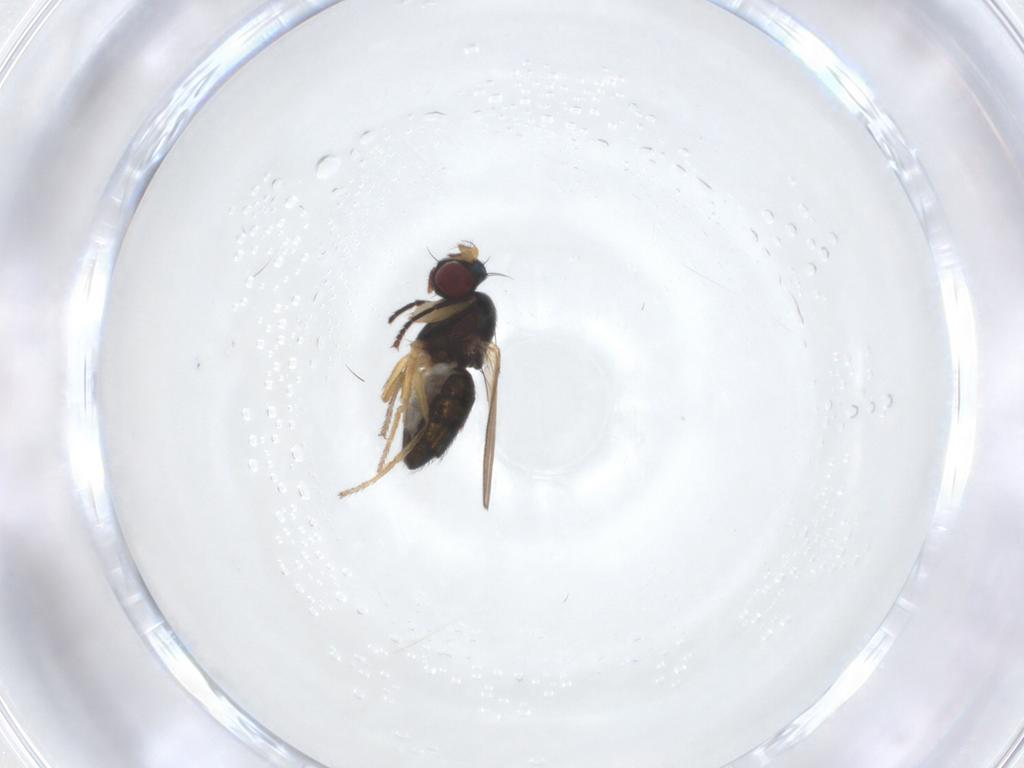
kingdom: Animalia
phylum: Arthropoda
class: Insecta
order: Diptera
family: Ephydridae
